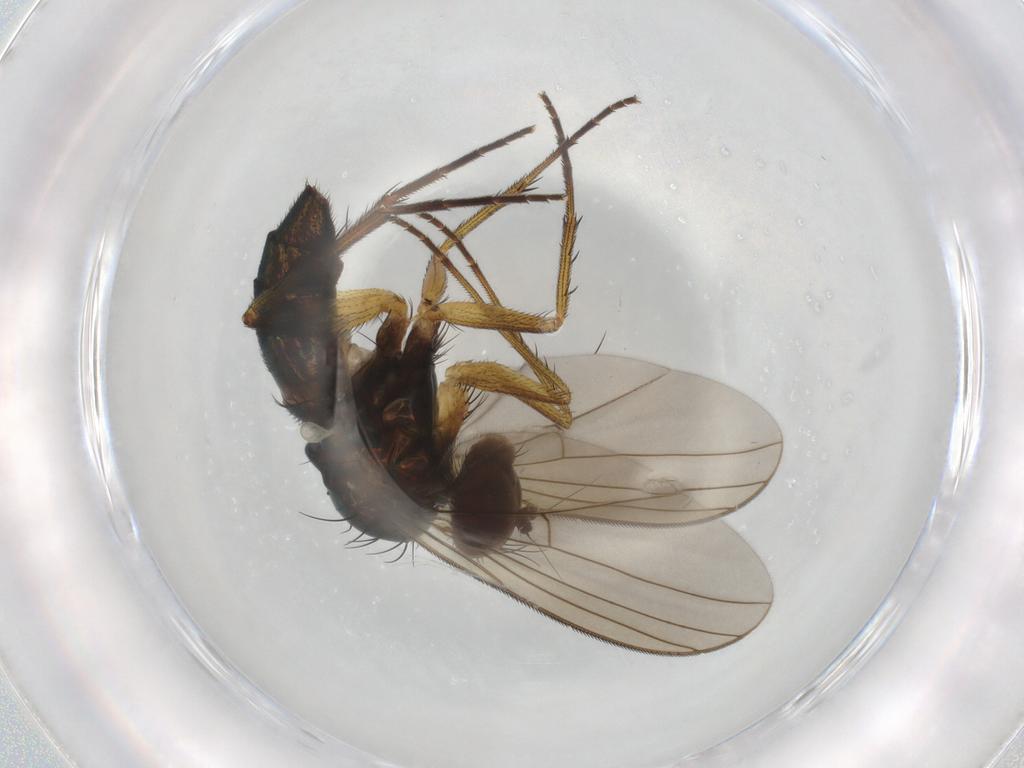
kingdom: Animalia
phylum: Arthropoda
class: Insecta
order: Diptera
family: Dolichopodidae
